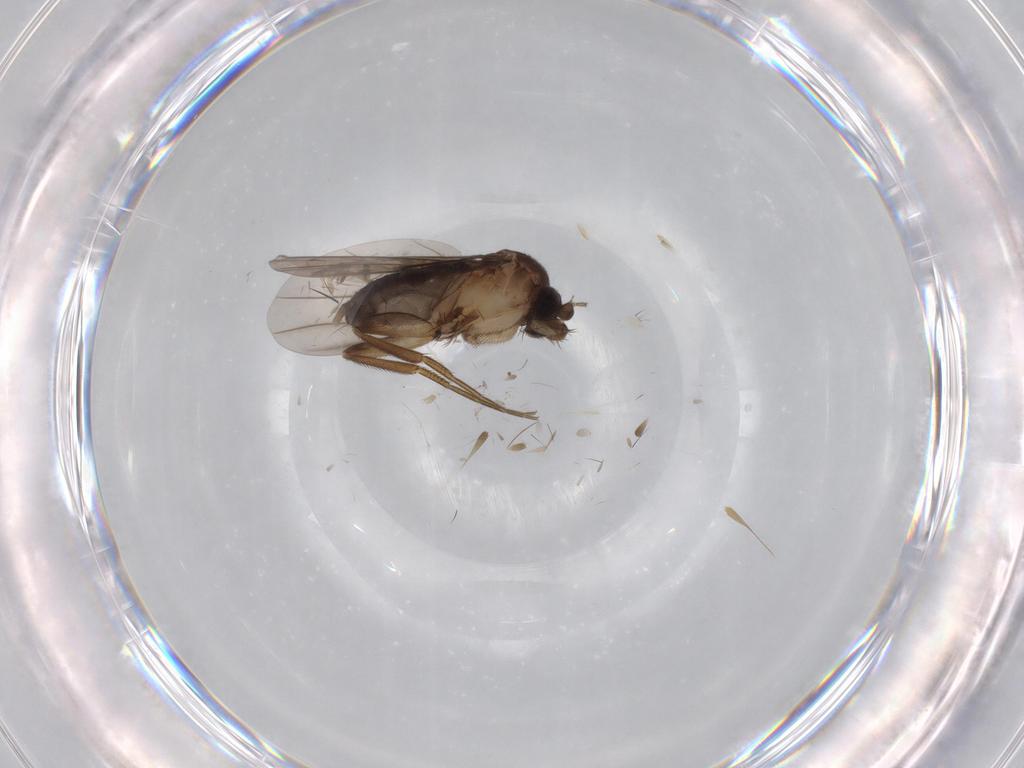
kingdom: Animalia
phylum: Arthropoda
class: Insecta
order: Diptera
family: Phoridae
